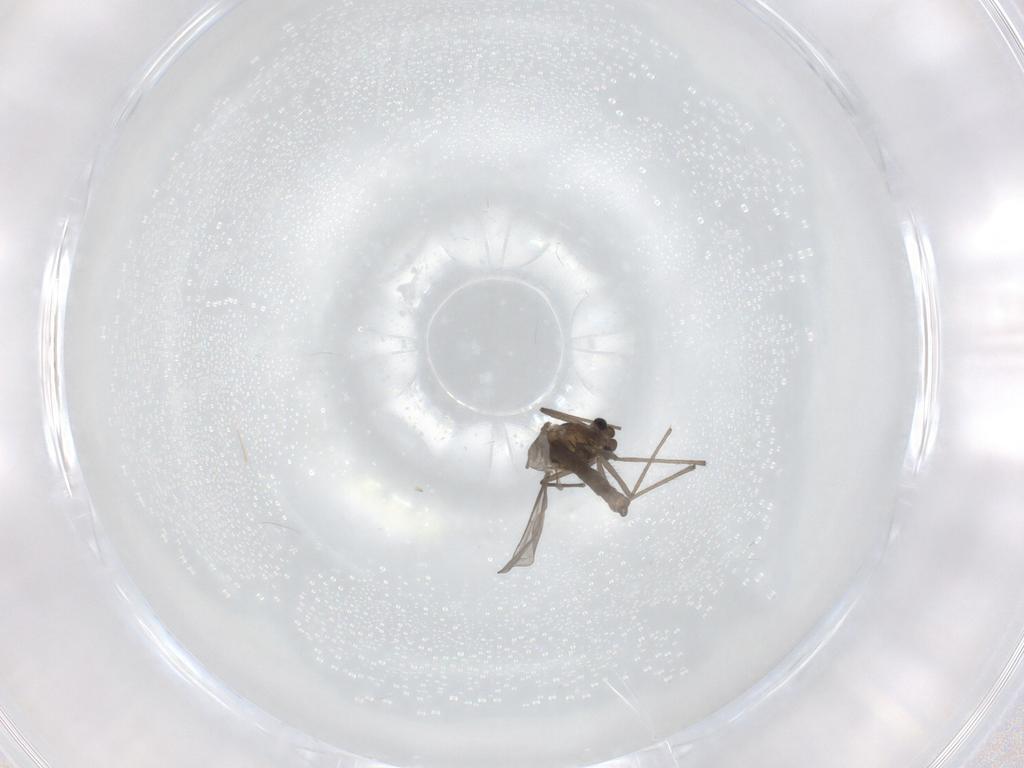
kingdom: Animalia
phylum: Arthropoda
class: Insecta
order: Diptera
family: Chironomidae
